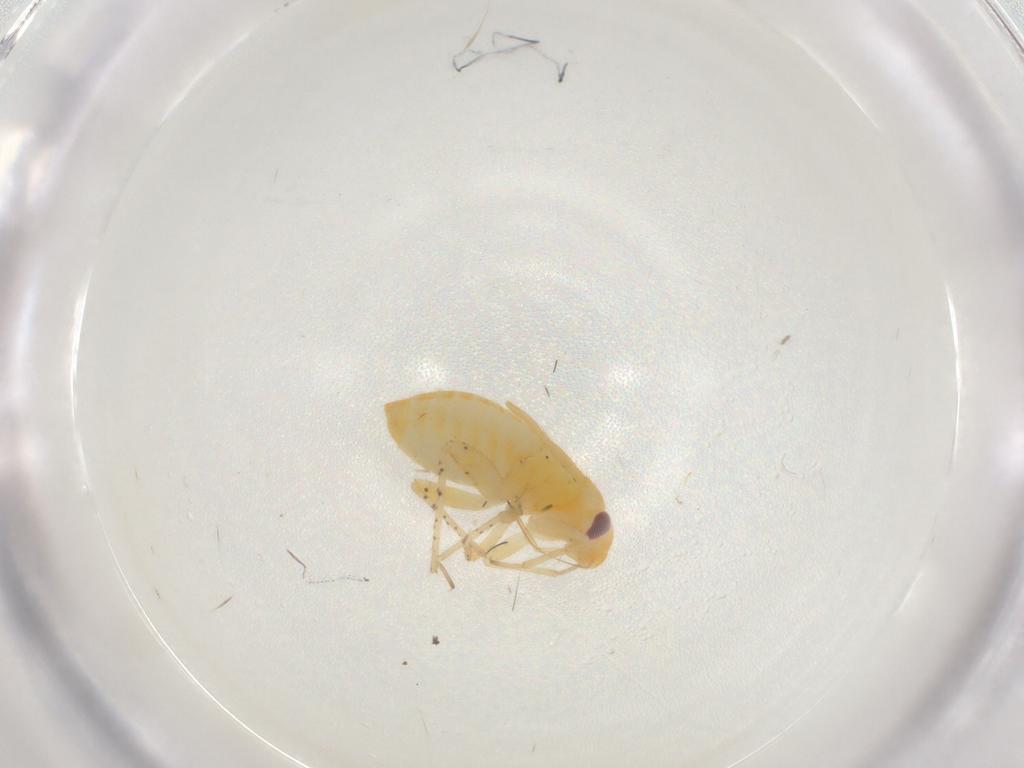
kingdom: Animalia
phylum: Arthropoda
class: Insecta
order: Hymenoptera
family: Braconidae
